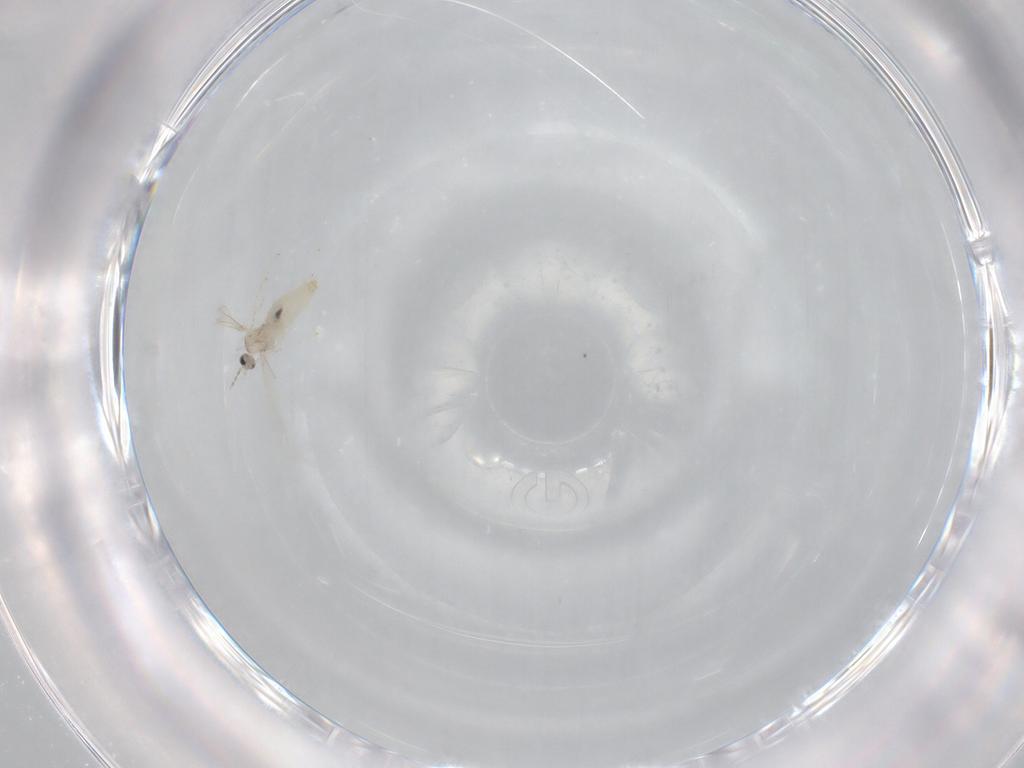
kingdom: Animalia
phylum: Arthropoda
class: Insecta
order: Diptera
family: Cecidomyiidae
